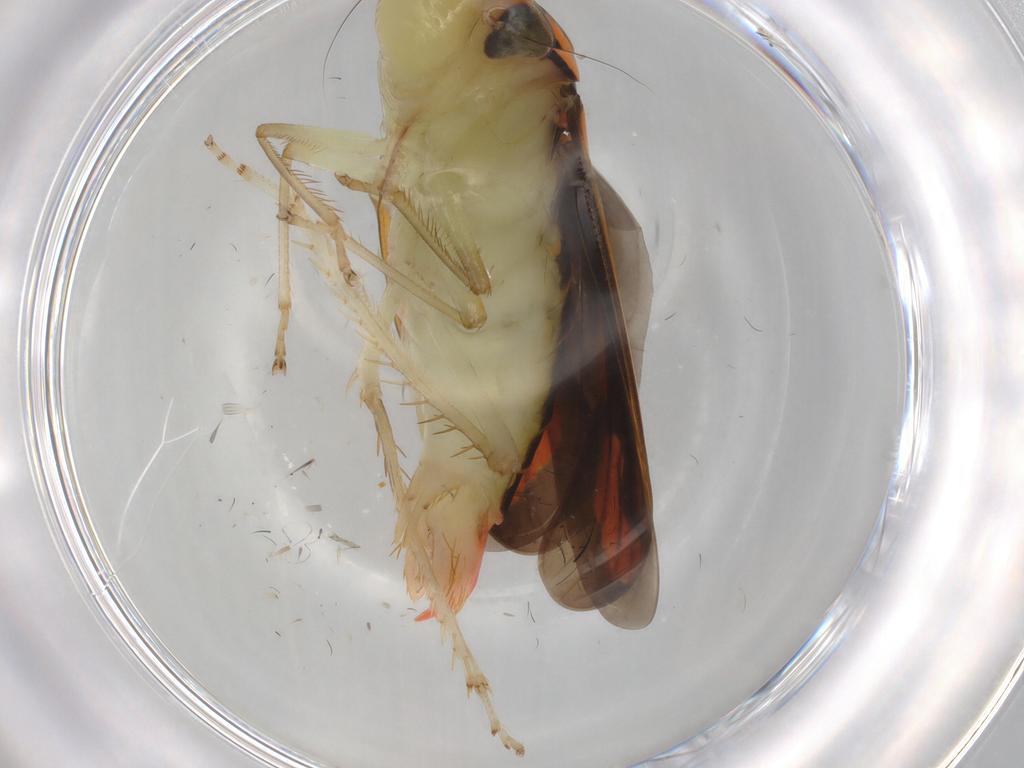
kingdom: Animalia
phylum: Arthropoda
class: Insecta
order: Hemiptera
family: Cicadellidae
